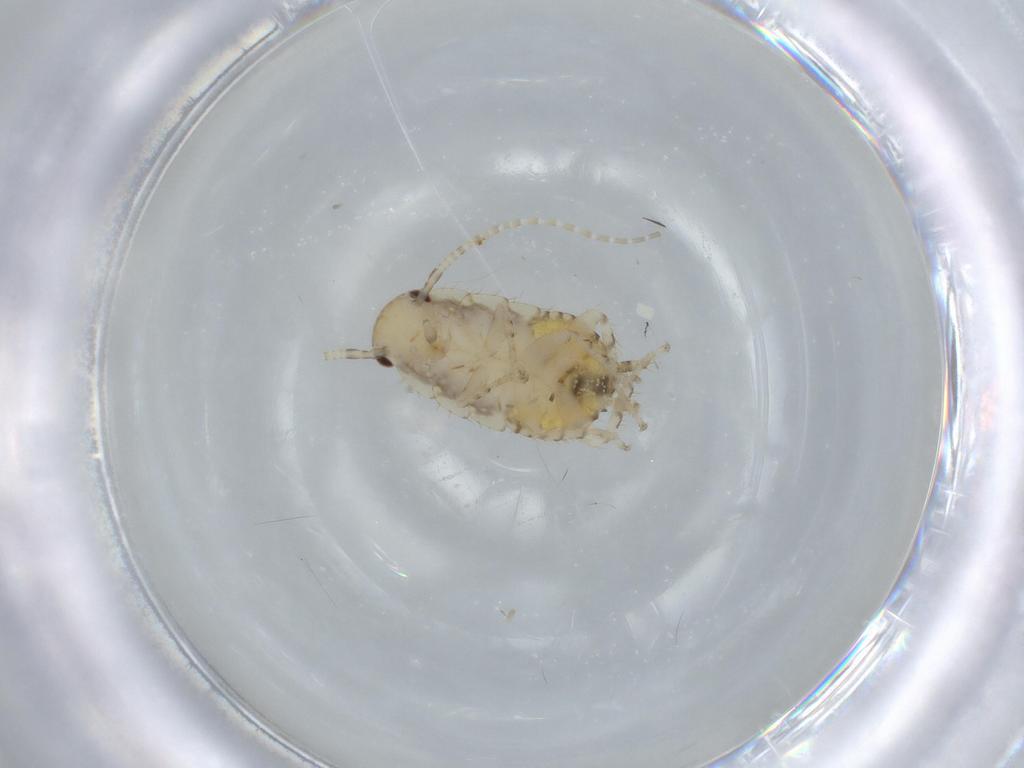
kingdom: Animalia
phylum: Arthropoda
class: Insecta
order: Blattodea
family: Ectobiidae
